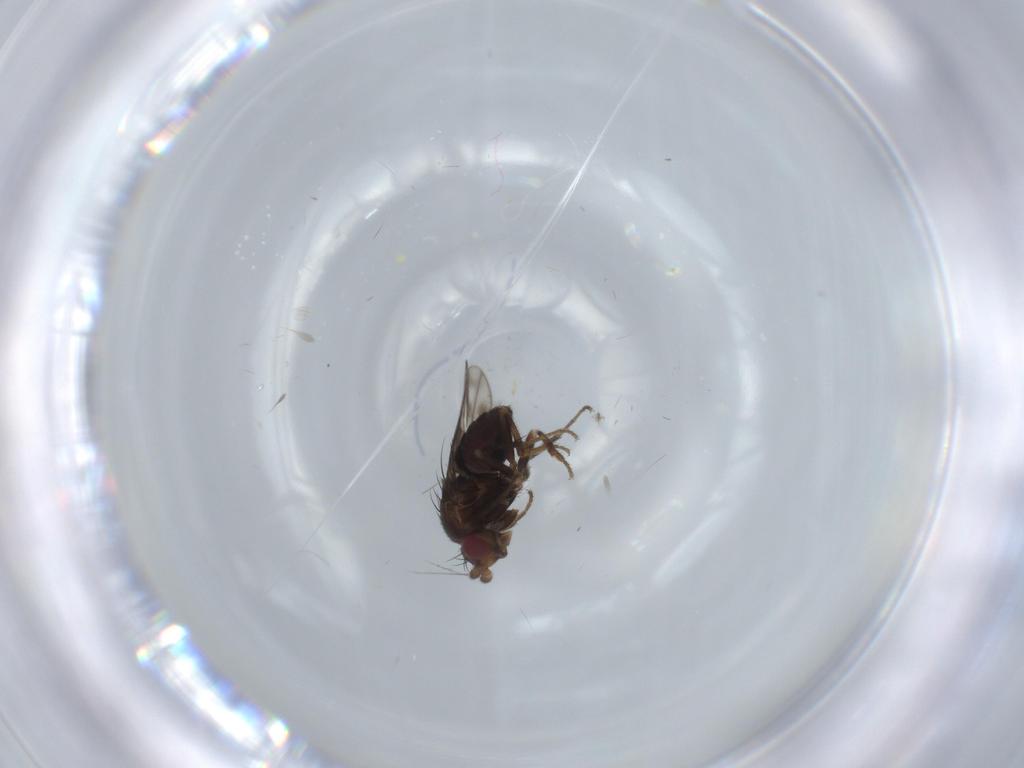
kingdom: Animalia
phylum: Arthropoda
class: Insecta
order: Diptera
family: Sphaeroceridae
